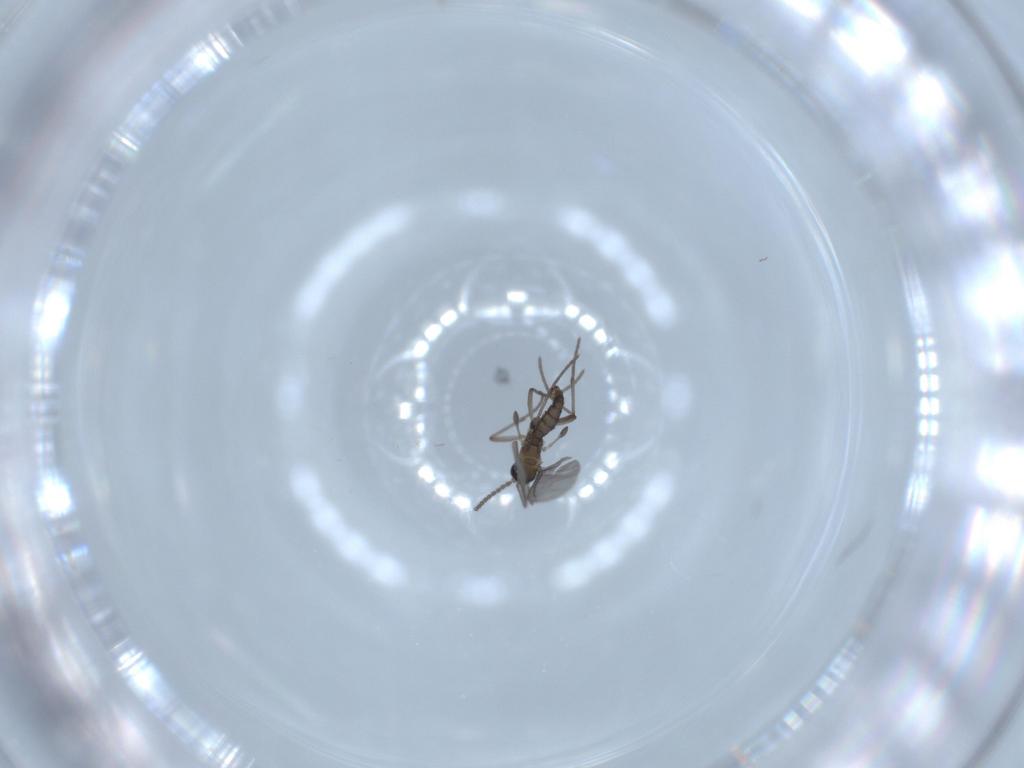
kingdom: Animalia
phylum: Arthropoda
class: Insecta
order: Diptera
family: Sciaridae
